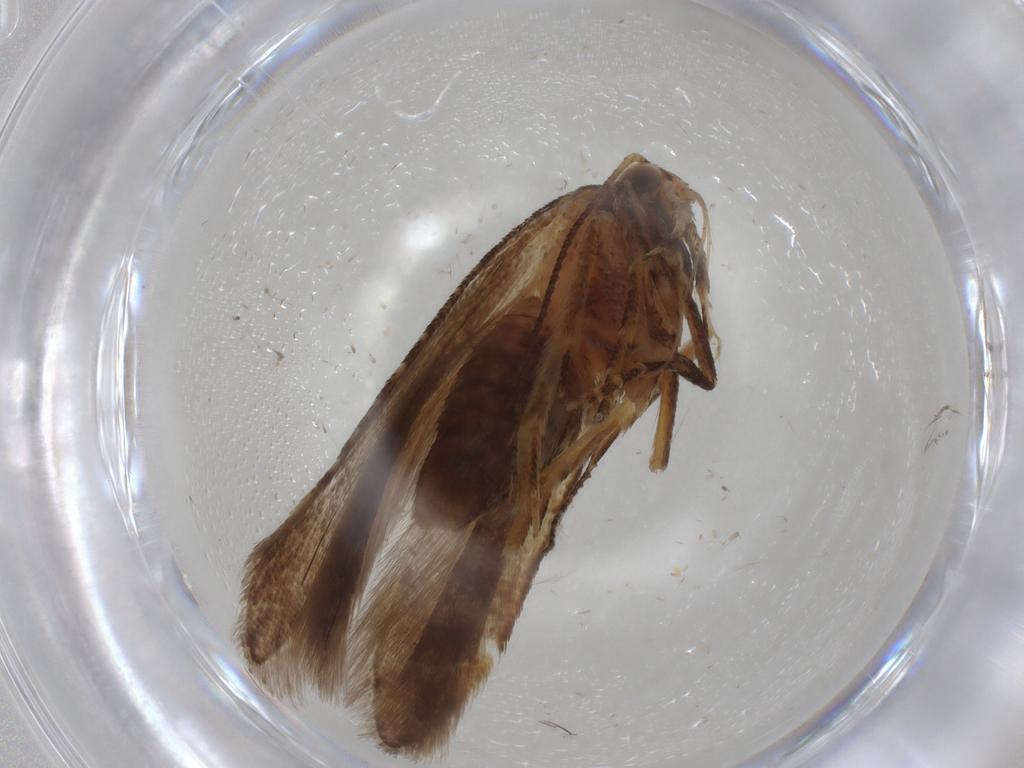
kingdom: Animalia
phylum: Arthropoda
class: Insecta
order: Lepidoptera
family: Gelechiidae
